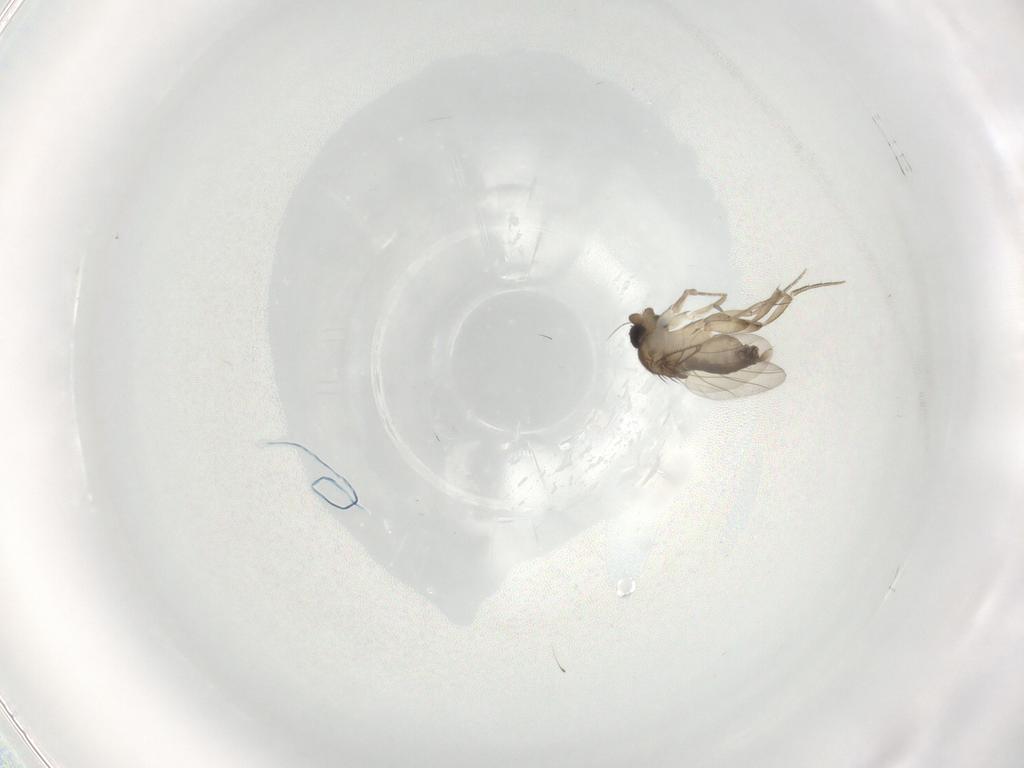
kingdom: Animalia
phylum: Arthropoda
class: Insecta
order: Diptera
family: Phoridae
